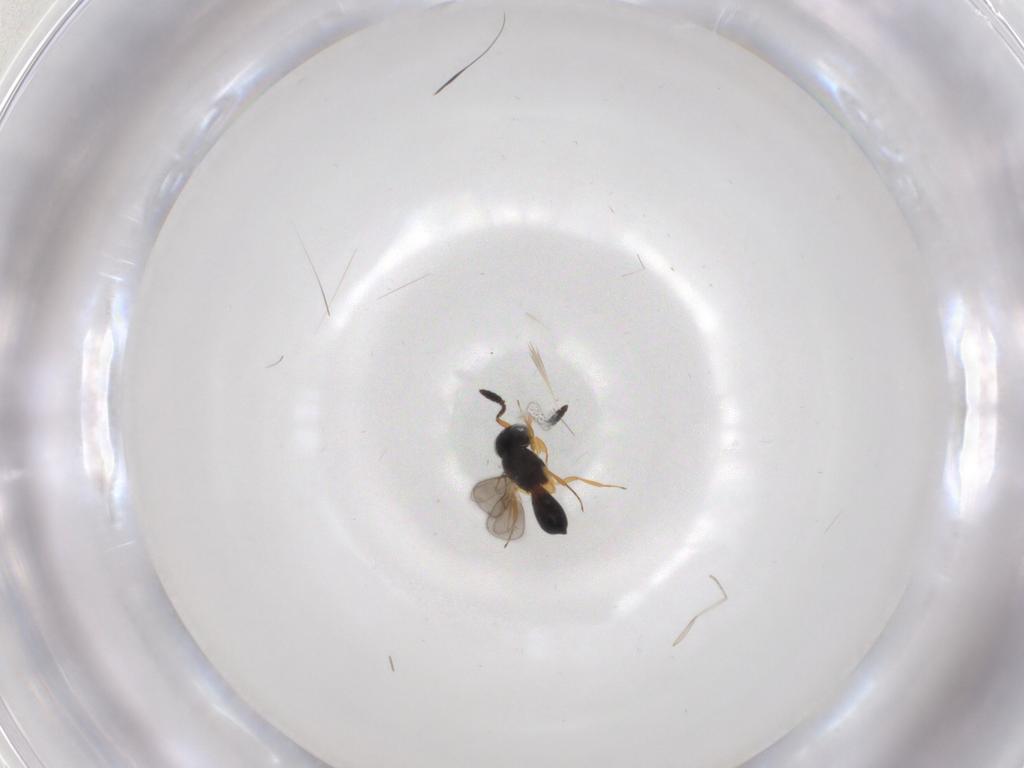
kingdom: Animalia
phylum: Arthropoda
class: Insecta
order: Hymenoptera
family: Scelionidae
